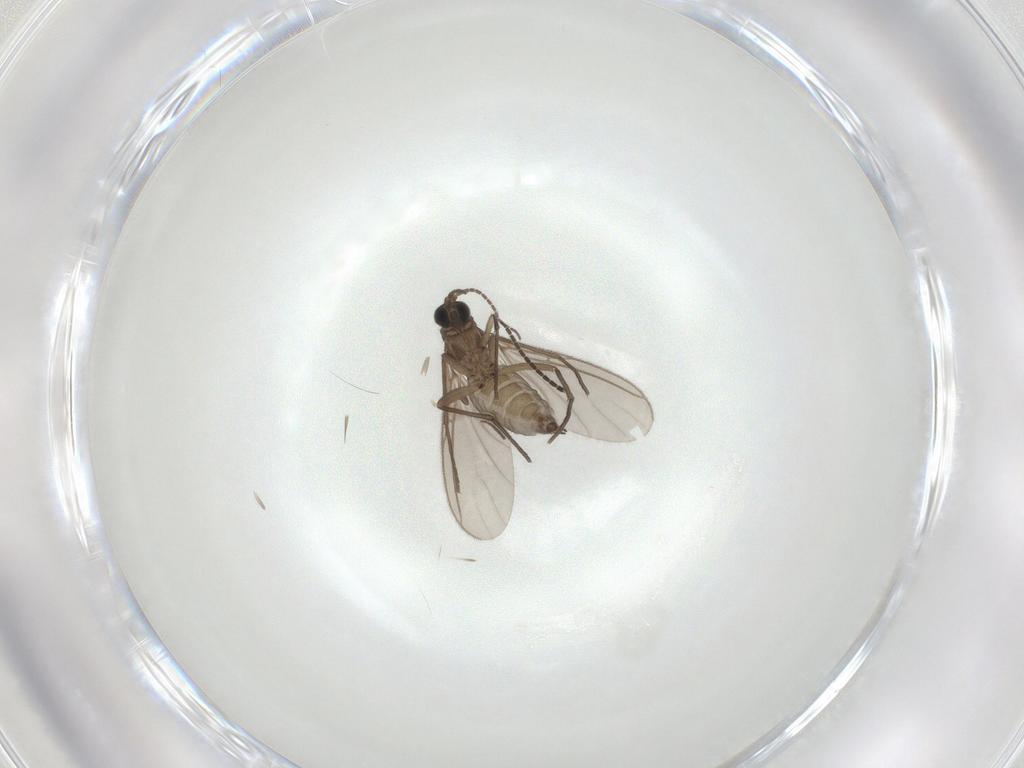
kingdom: Animalia
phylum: Arthropoda
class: Insecta
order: Diptera
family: Sciaridae
